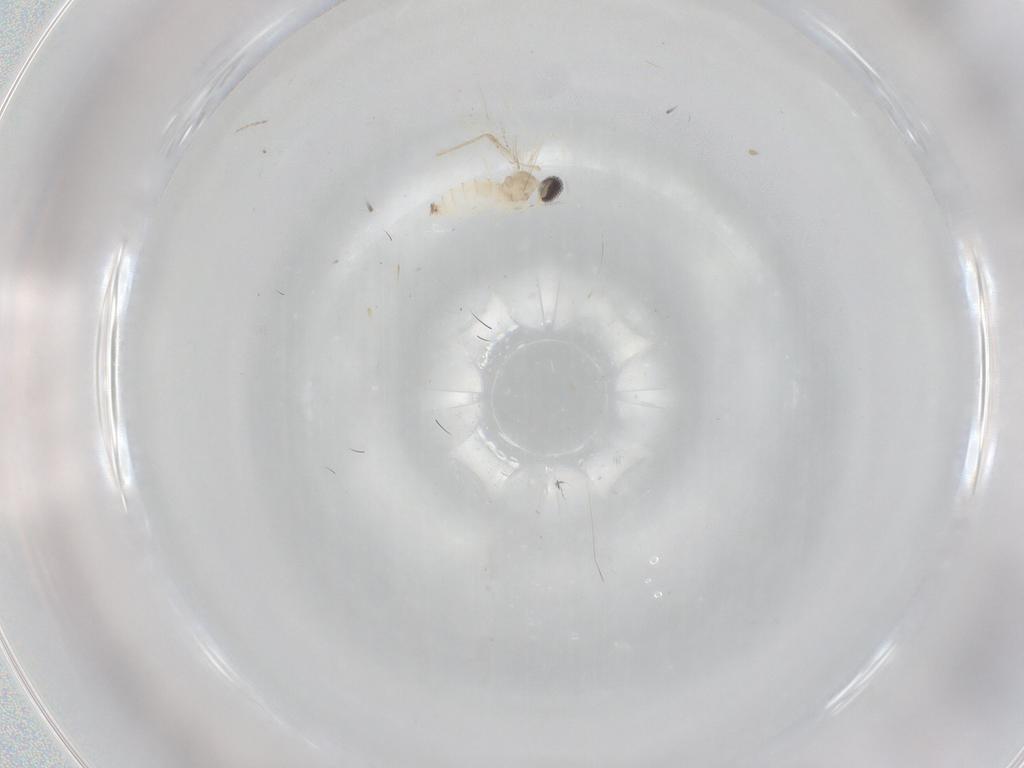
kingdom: Animalia
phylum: Arthropoda
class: Insecta
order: Diptera
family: Cecidomyiidae
